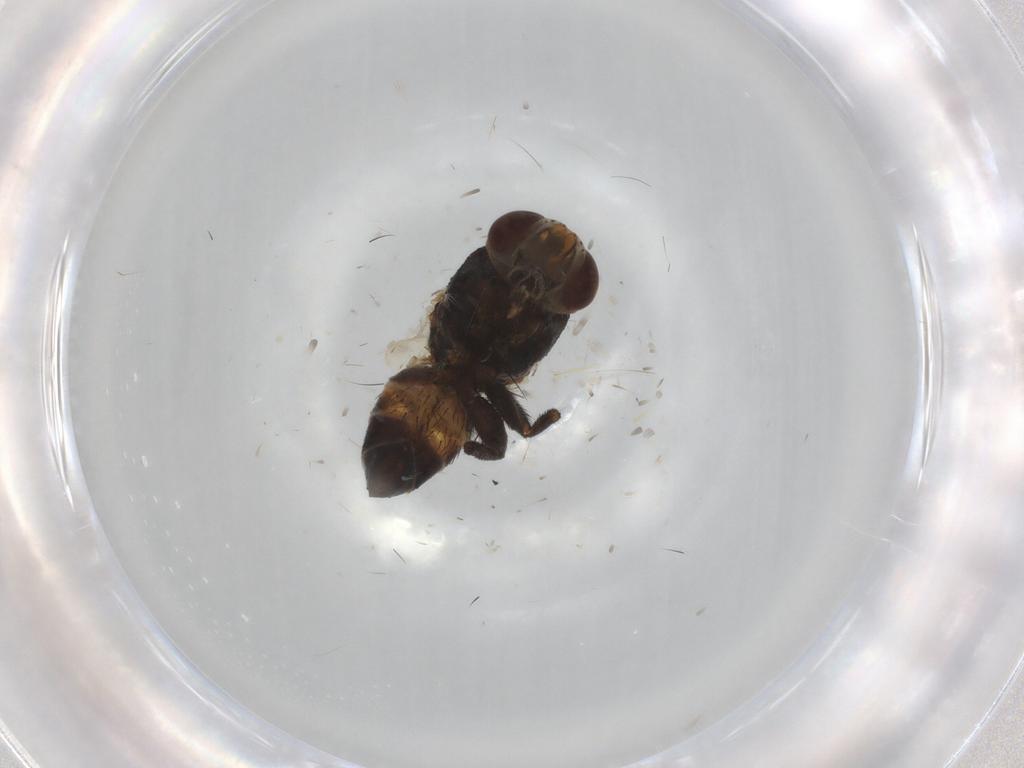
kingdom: Animalia
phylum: Arthropoda
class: Insecta
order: Diptera
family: Tachinidae
